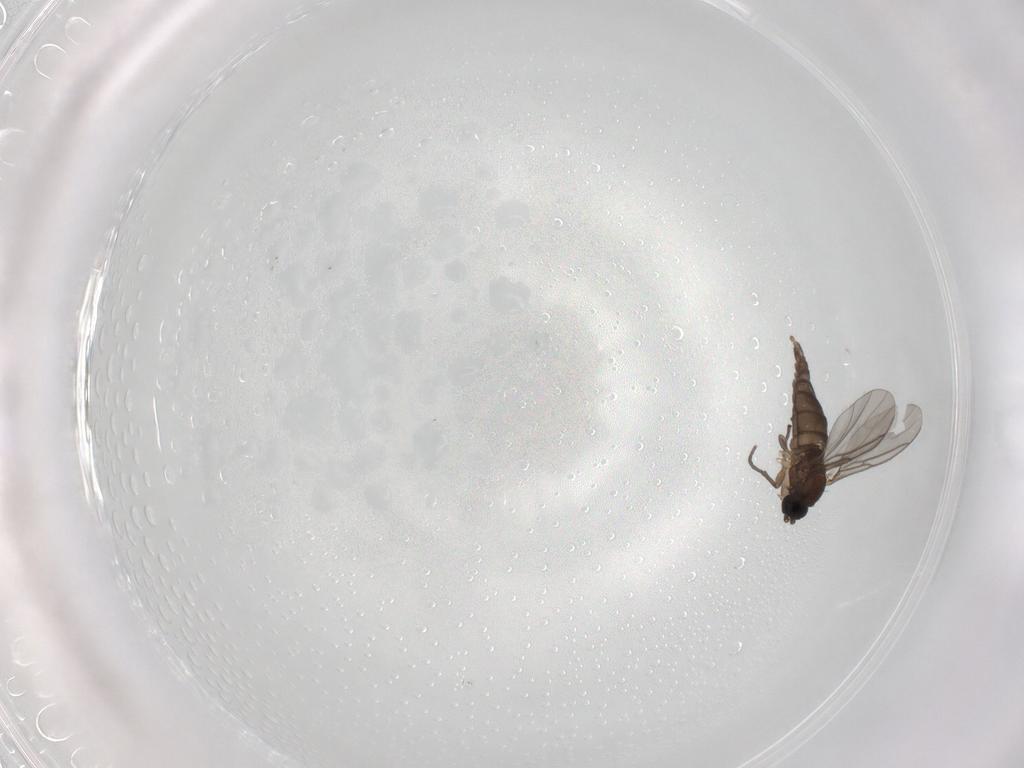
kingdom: Animalia
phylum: Arthropoda
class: Insecta
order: Diptera
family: Sciaridae
